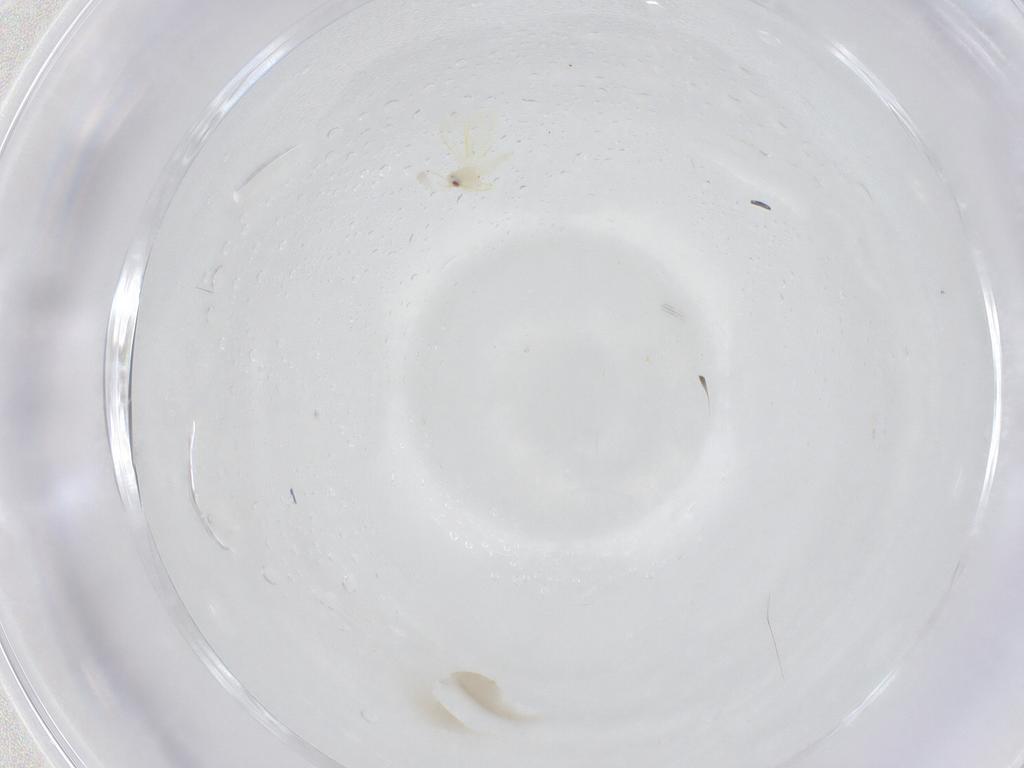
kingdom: Animalia
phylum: Arthropoda
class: Insecta
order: Hemiptera
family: Aleyrodidae
